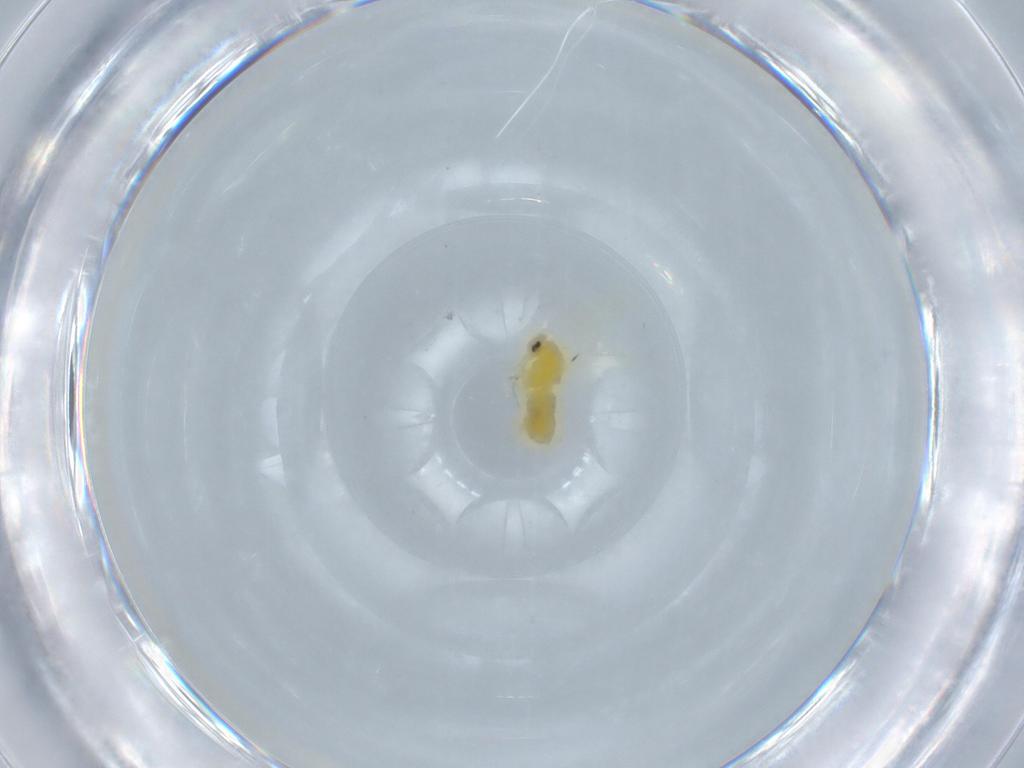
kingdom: Animalia
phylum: Arthropoda
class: Insecta
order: Hemiptera
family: Aleyrodidae
